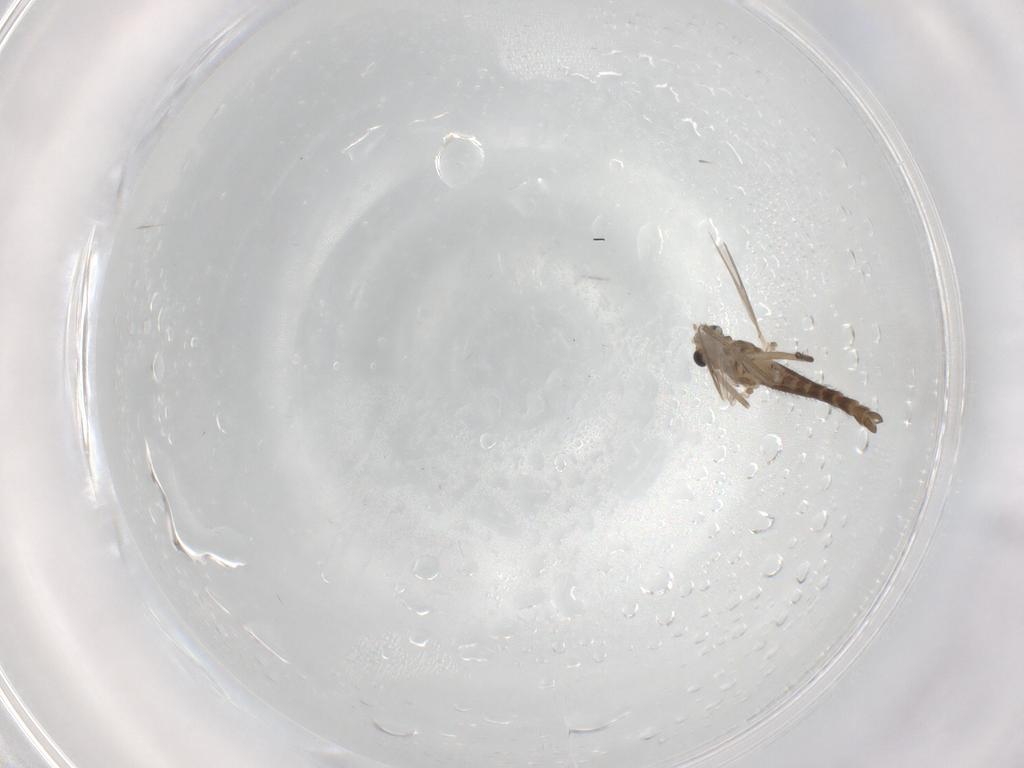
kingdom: Animalia
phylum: Arthropoda
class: Insecta
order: Diptera
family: Chironomidae
